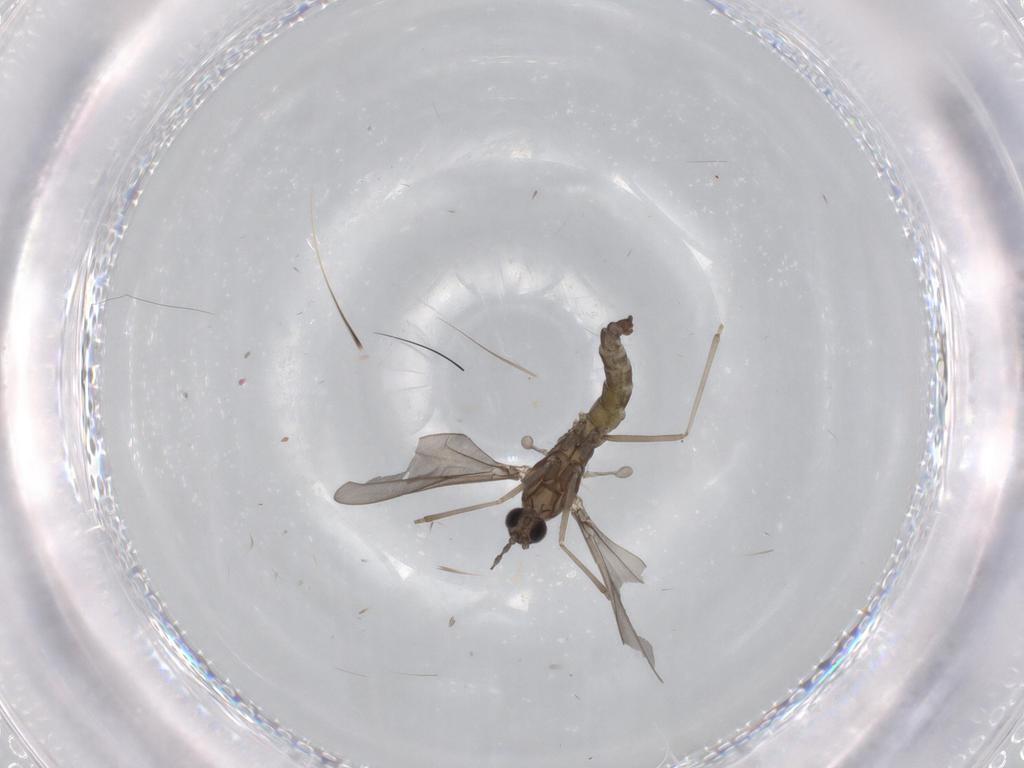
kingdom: Animalia
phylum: Arthropoda
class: Insecta
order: Diptera
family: Cecidomyiidae
